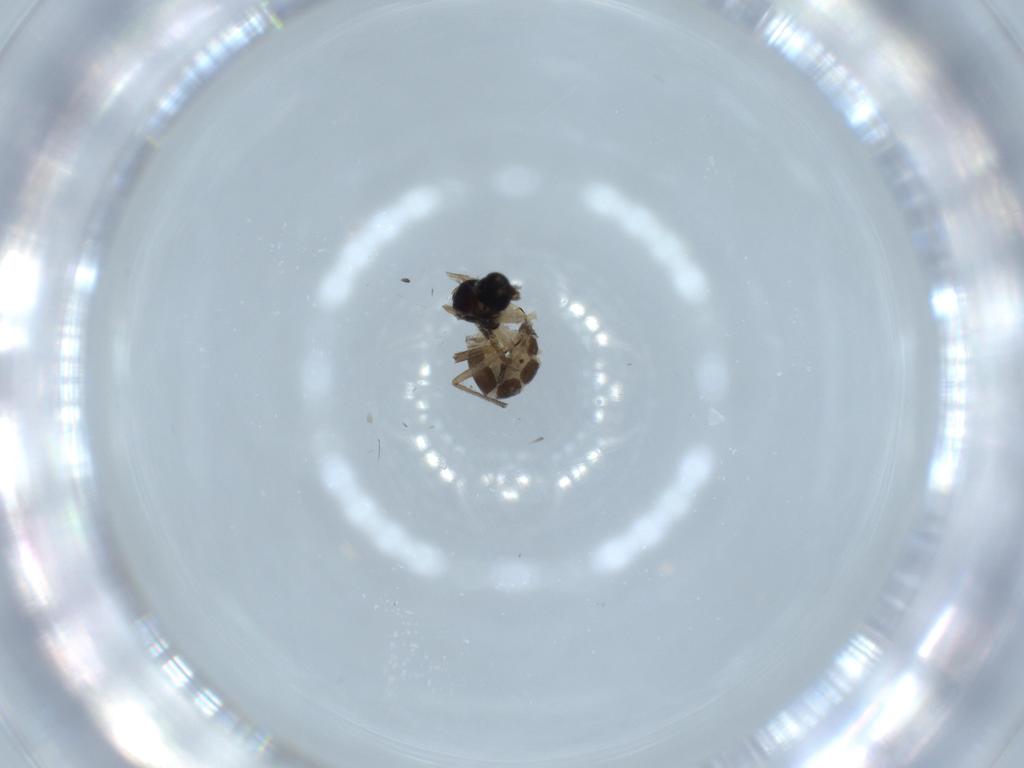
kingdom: Animalia
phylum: Arthropoda
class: Insecta
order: Diptera
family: Sciaridae
